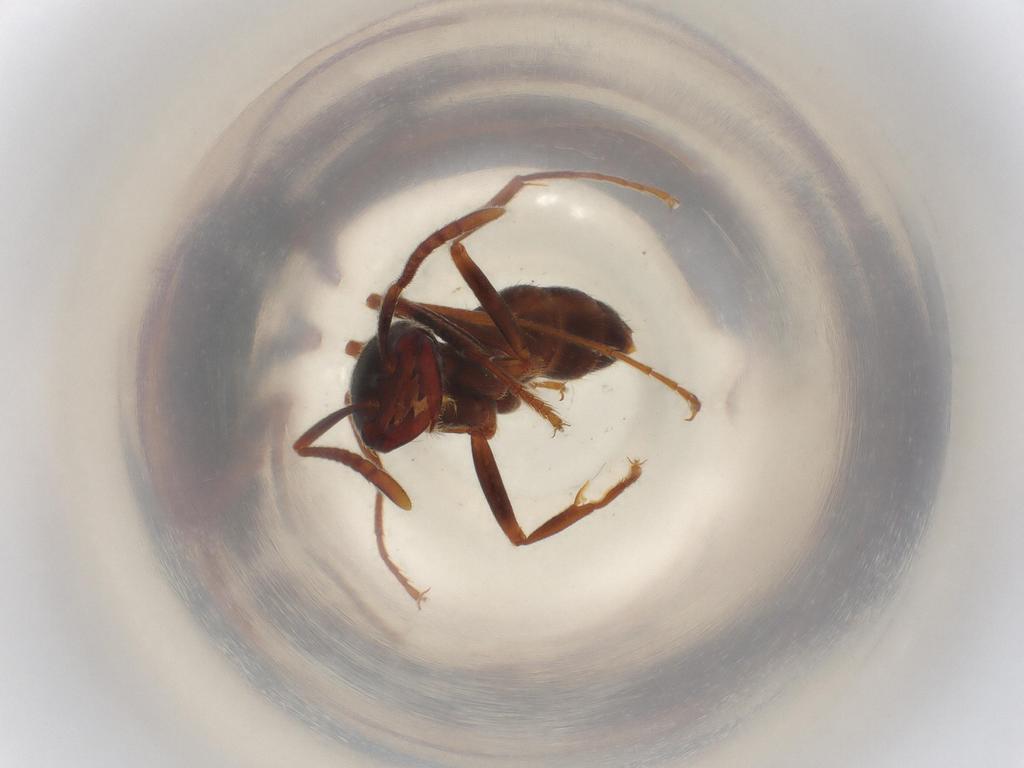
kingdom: Animalia
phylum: Arthropoda
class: Insecta
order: Hymenoptera
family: Formicidae
